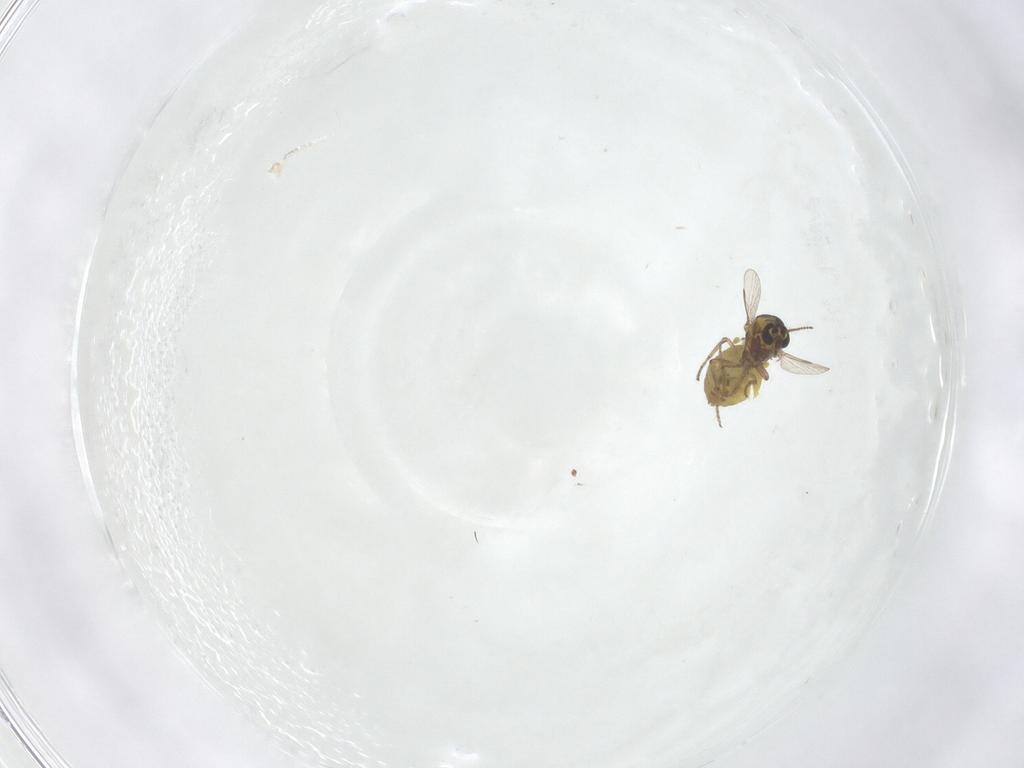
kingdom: Animalia
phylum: Arthropoda
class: Insecta
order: Diptera
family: Ceratopogonidae
